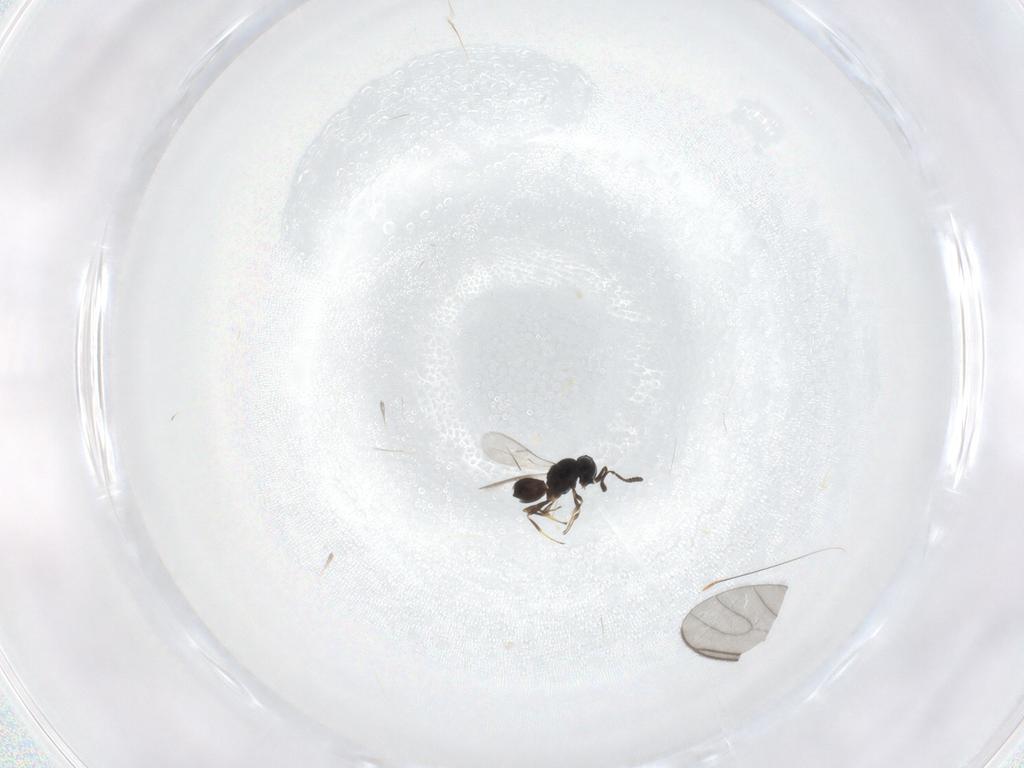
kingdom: Animalia
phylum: Arthropoda
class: Insecta
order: Hymenoptera
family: Scelionidae
